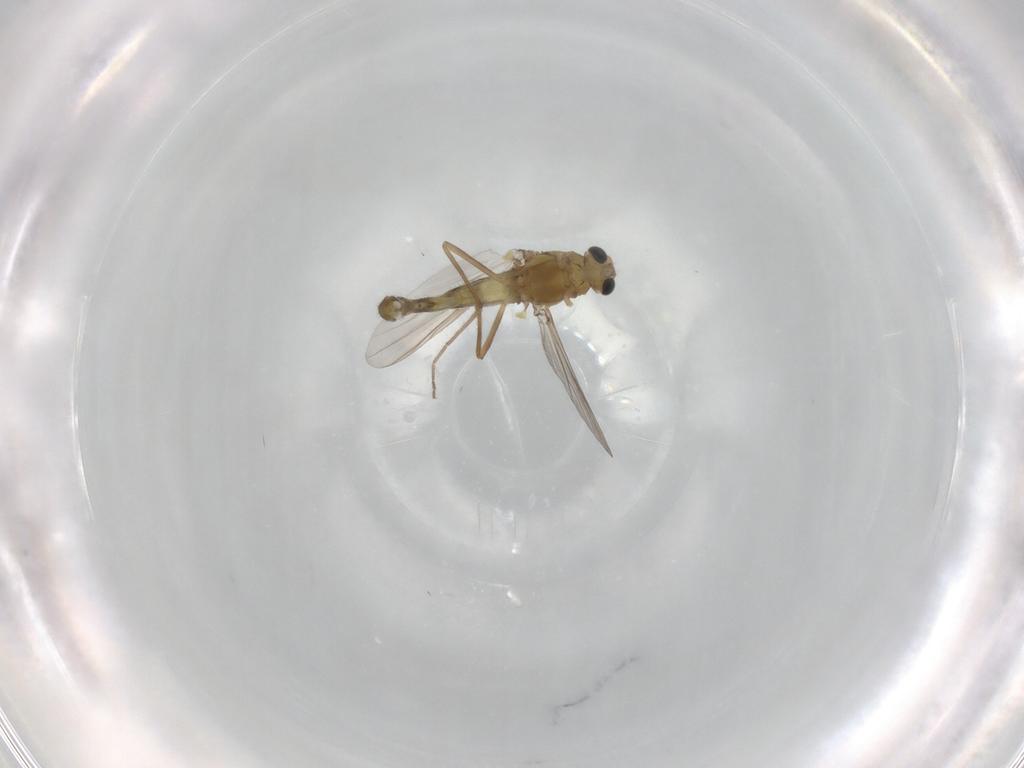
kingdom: Animalia
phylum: Arthropoda
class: Insecta
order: Diptera
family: Chironomidae
